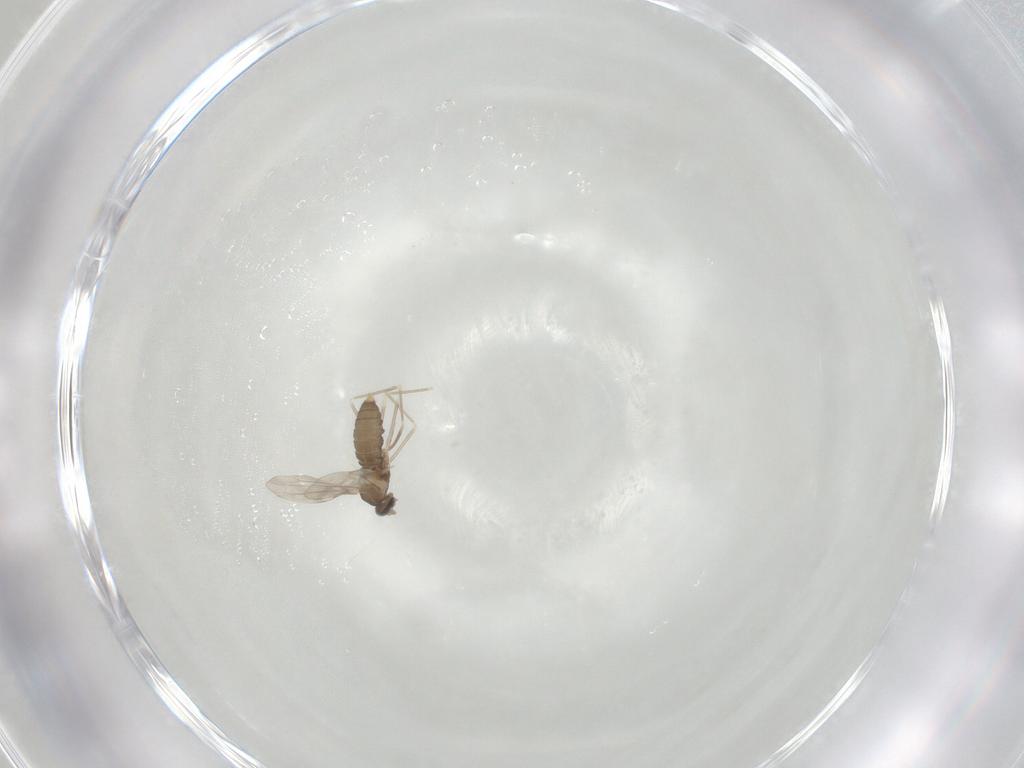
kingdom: Animalia
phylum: Arthropoda
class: Insecta
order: Diptera
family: Cecidomyiidae
